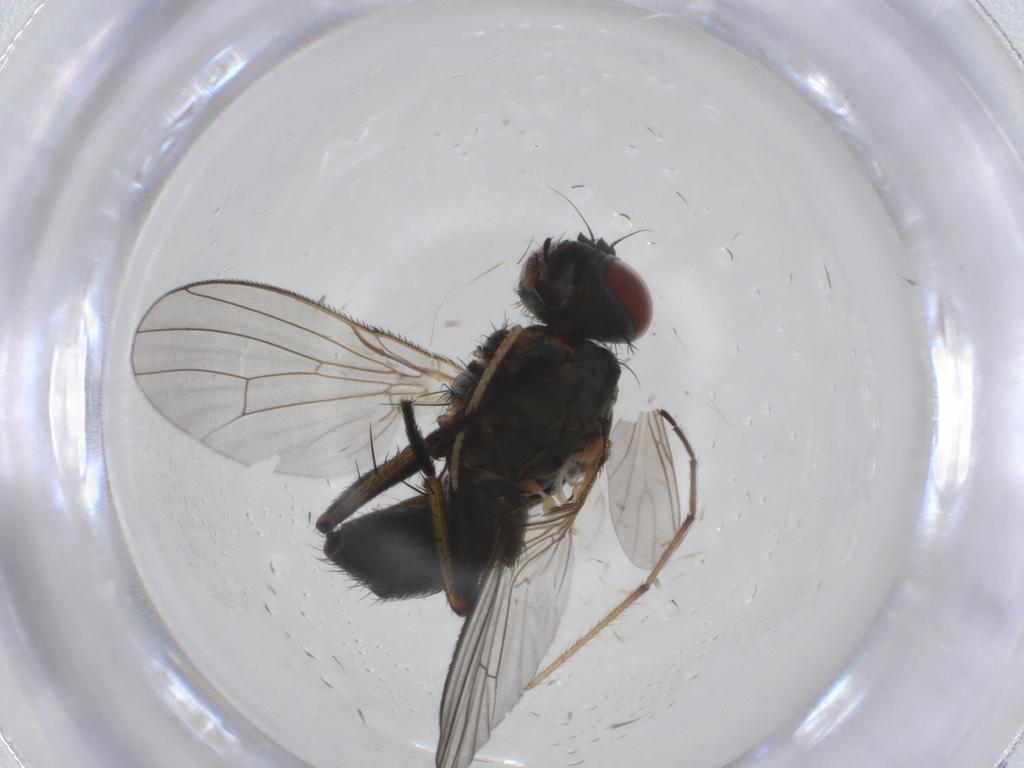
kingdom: Animalia
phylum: Arthropoda
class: Insecta
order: Diptera
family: Muscidae
